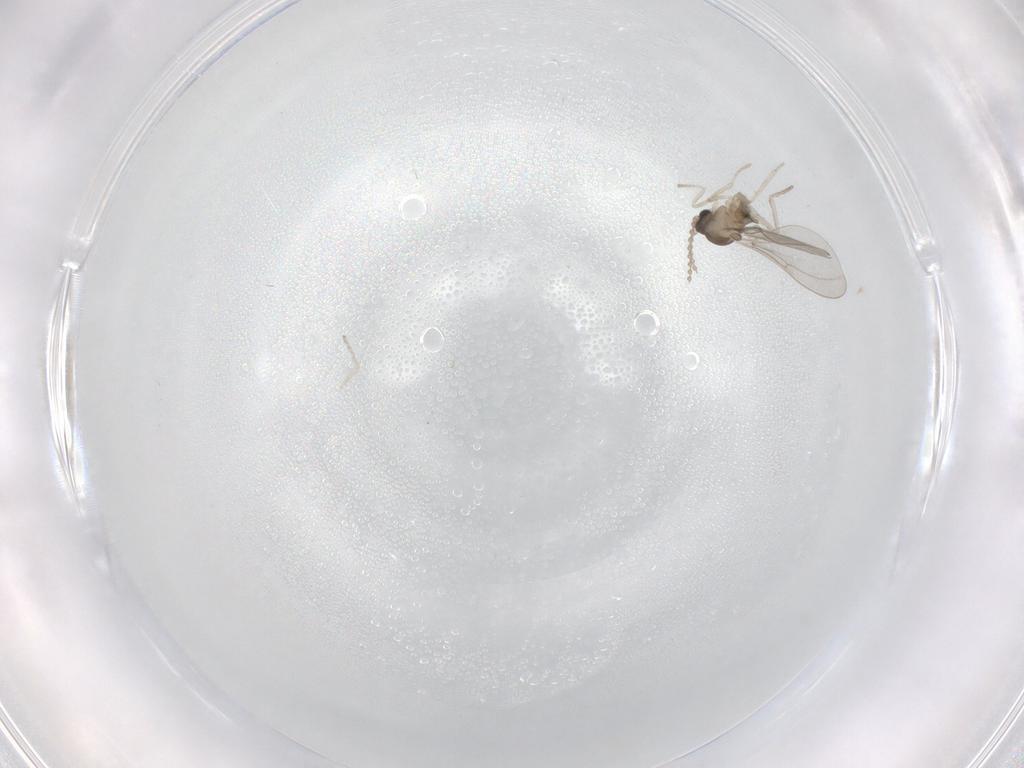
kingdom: Animalia
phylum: Arthropoda
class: Insecta
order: Diptera
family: Cecidomyiidae
